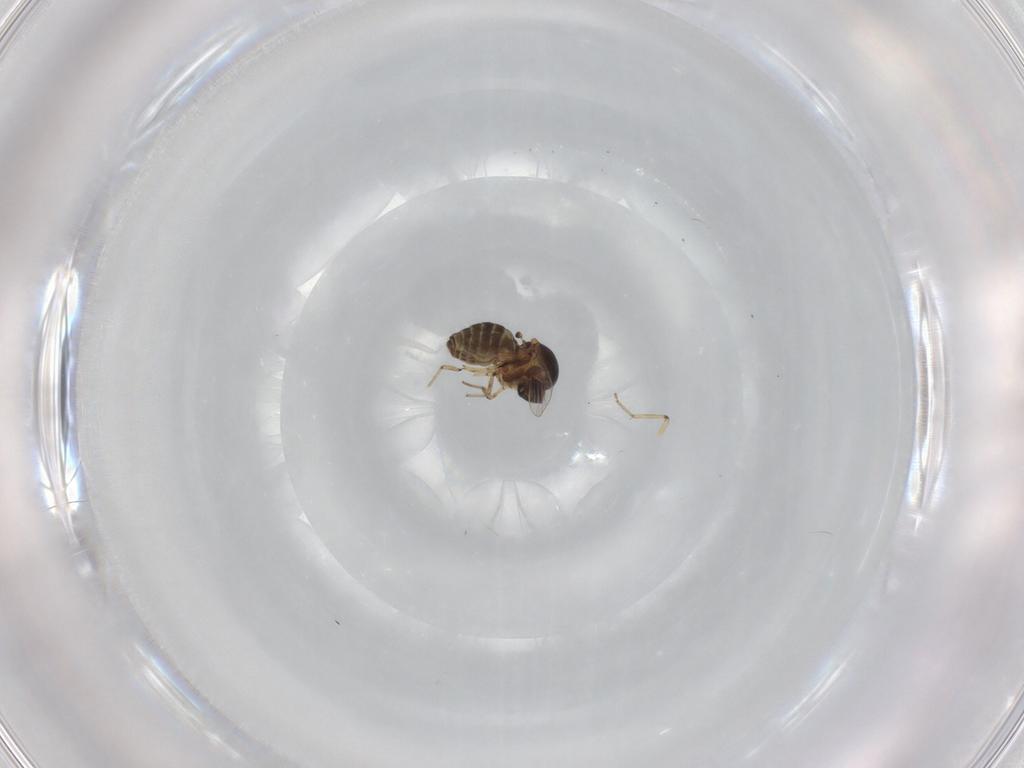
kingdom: Animalia
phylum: Arthropoda
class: Insecta
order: Diptera
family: Ceratopogonidae
